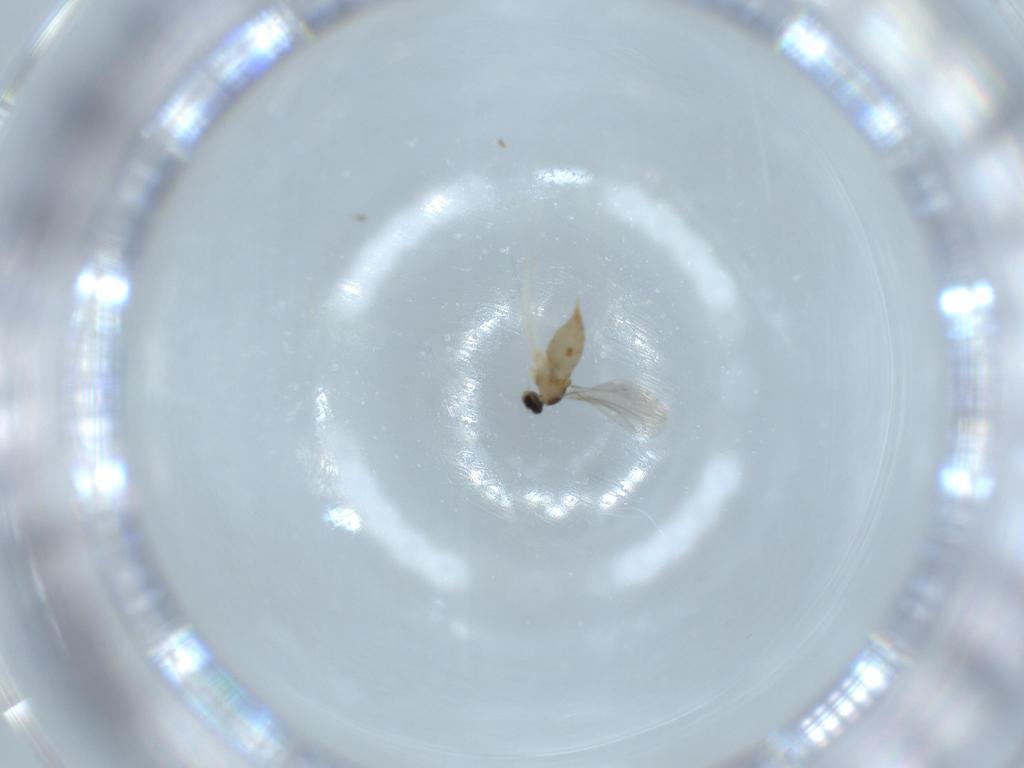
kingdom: Animalia
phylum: Arthropoda
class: Insecta
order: Diptera
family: Cecidomyiidae
